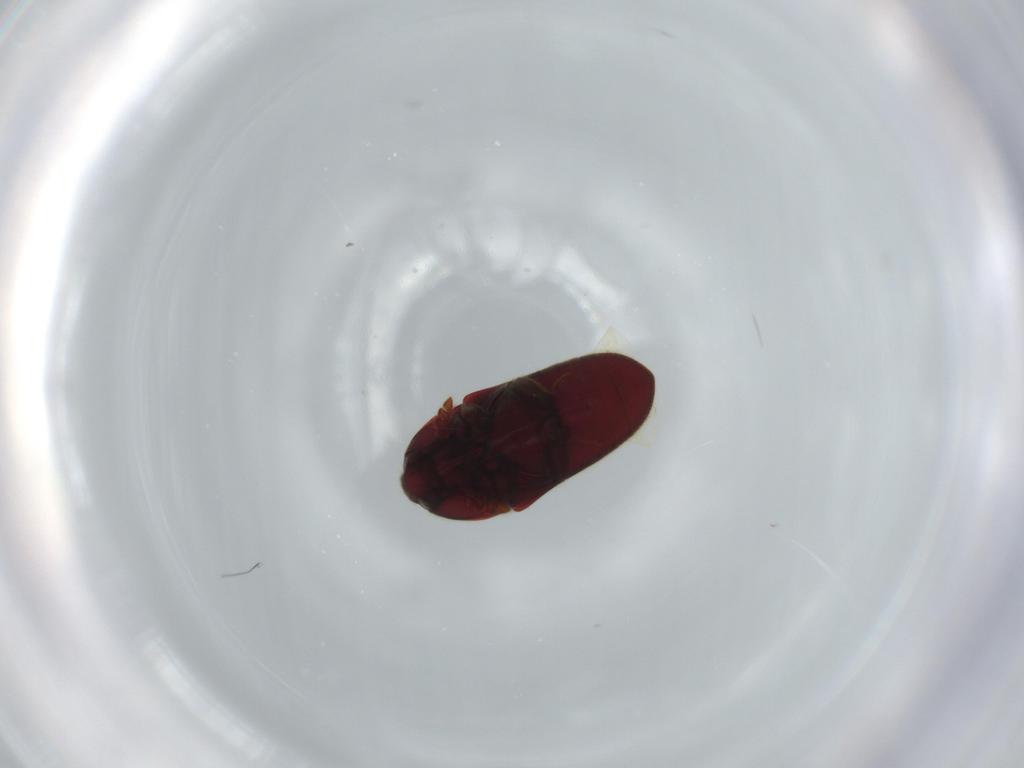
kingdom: Animalia
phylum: Arthropoda
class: Insecta
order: Coleoptera
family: Throscidae
